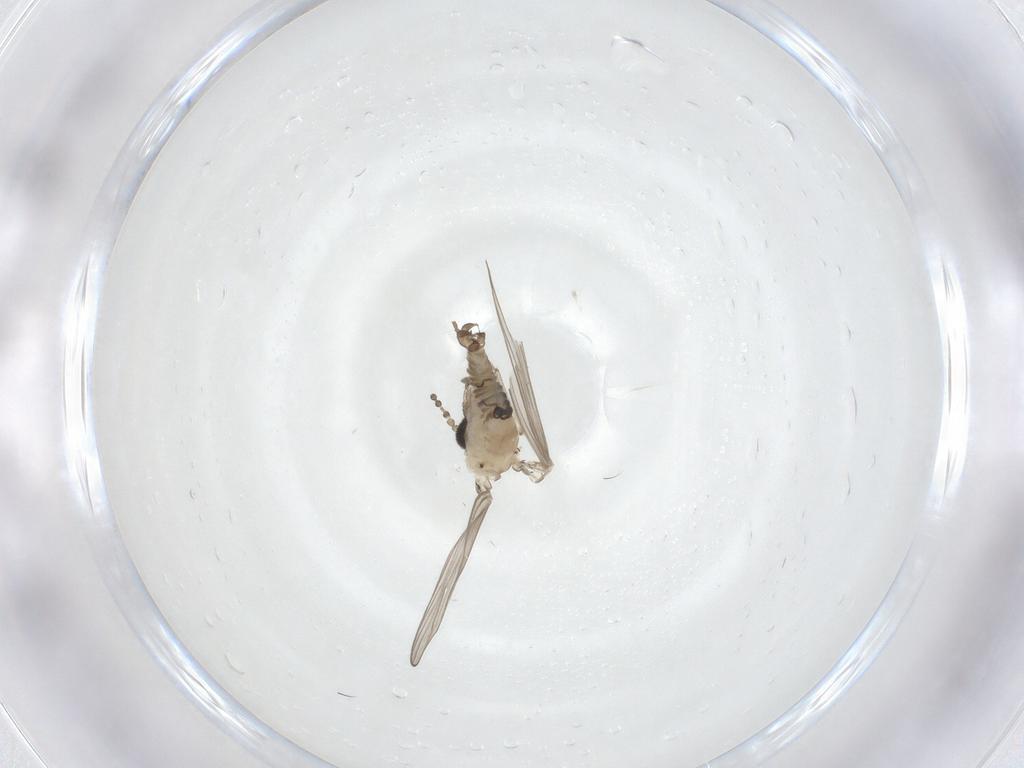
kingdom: Animalia
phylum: Arthropoda
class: Insecta
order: Diptera
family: Psychodidae
